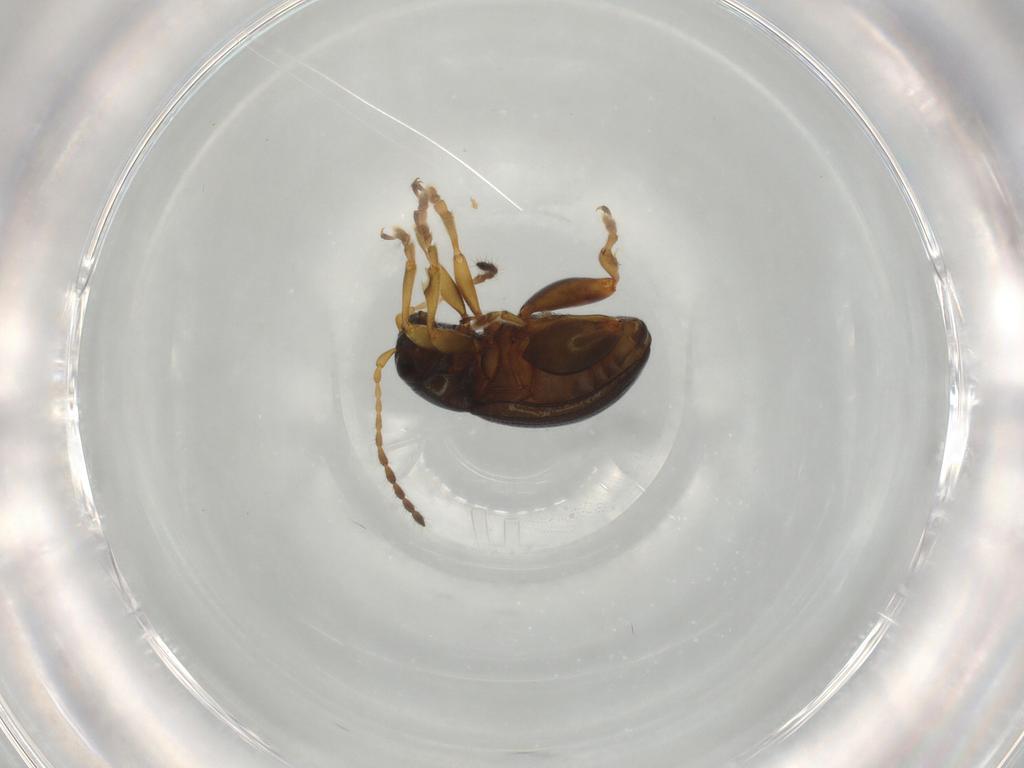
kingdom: Animalia
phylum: Arthropoda
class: Insecta
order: Coleoptera
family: Chrysomelidae
